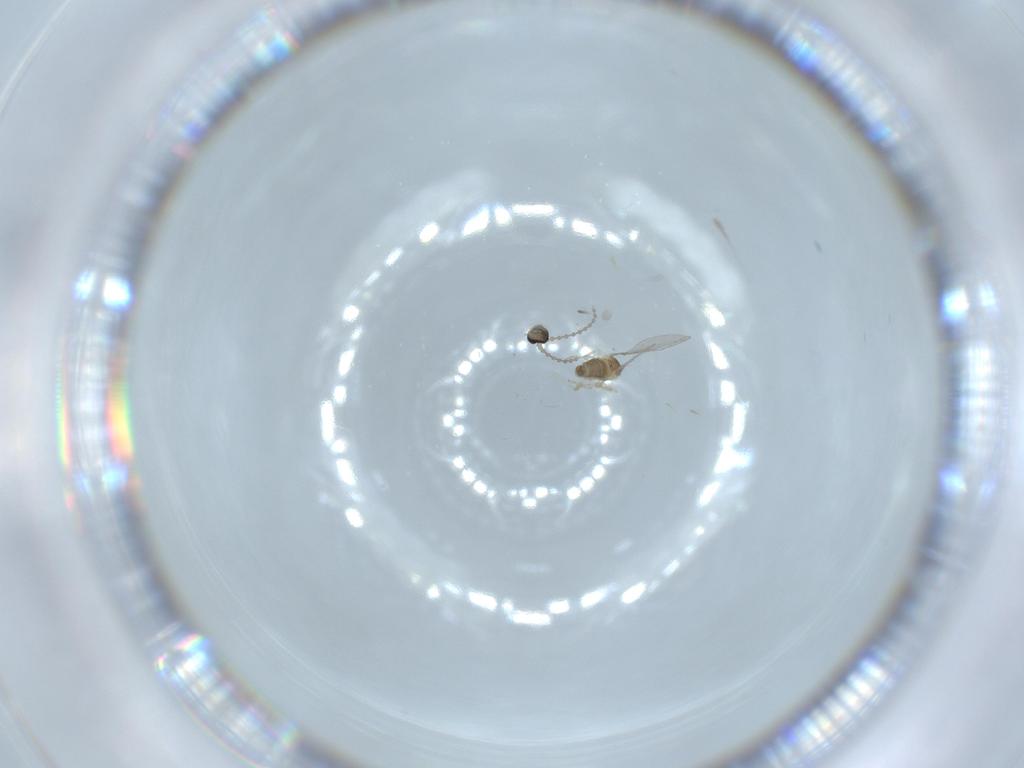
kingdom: Animalia
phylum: Arthropoda
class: Insecta
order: Diptera
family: Cecidomyiidae
